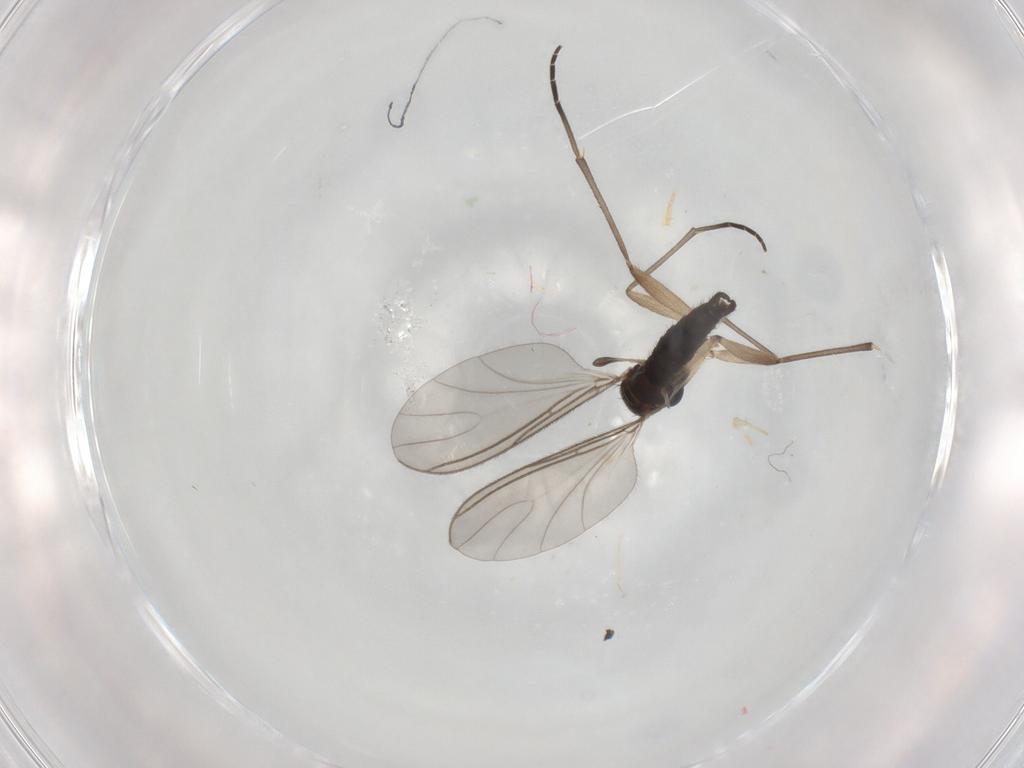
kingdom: Animalia
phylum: Arthropoda
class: Insecta
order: Diptera
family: Sciaridae
